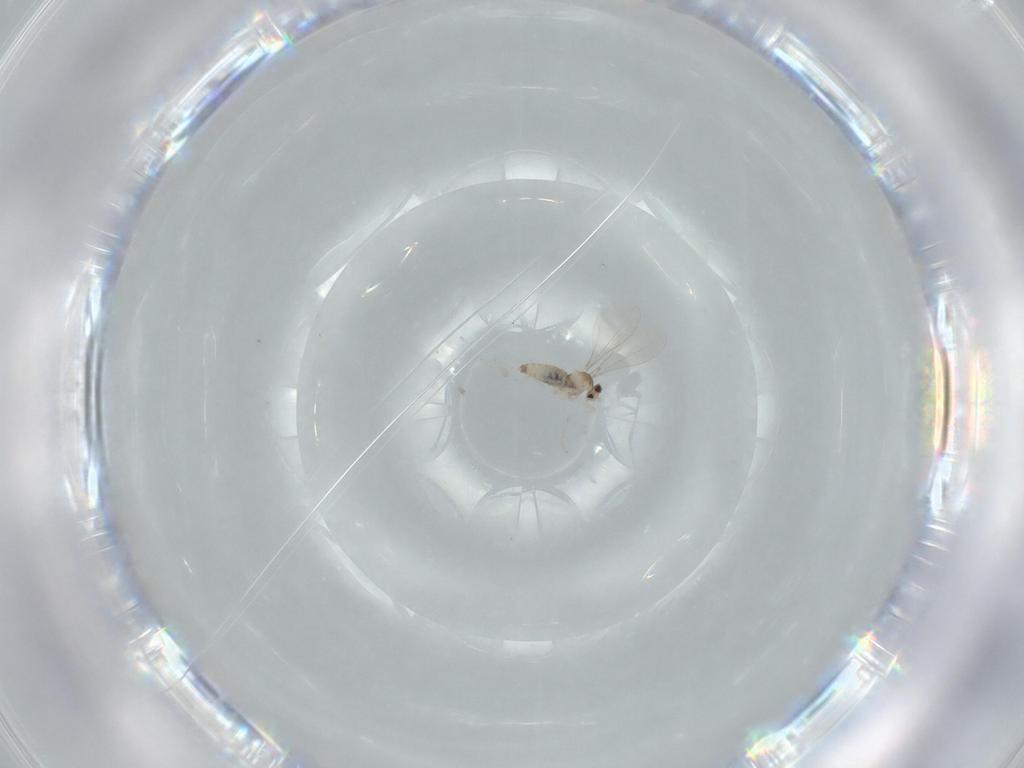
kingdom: Animalia
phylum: Arthropoda
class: Insecta
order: Diptera
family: Cecidomyiidae
